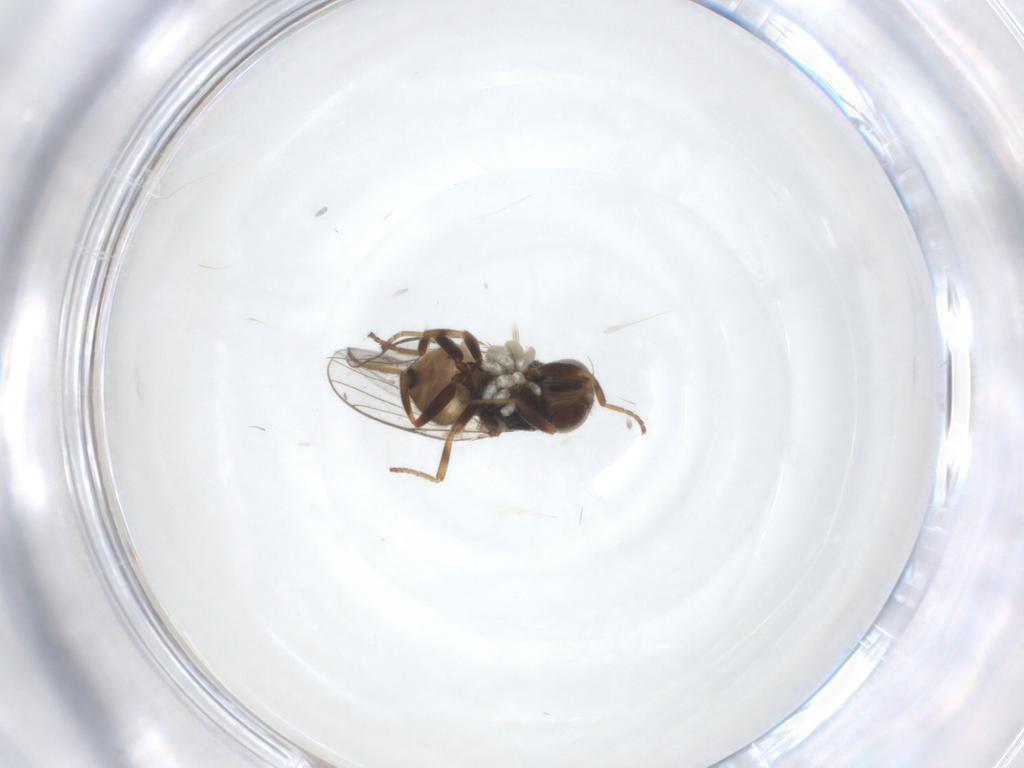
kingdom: Animalia
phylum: Arthropoda
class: Insecta
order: Diptera
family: Chloropidae
